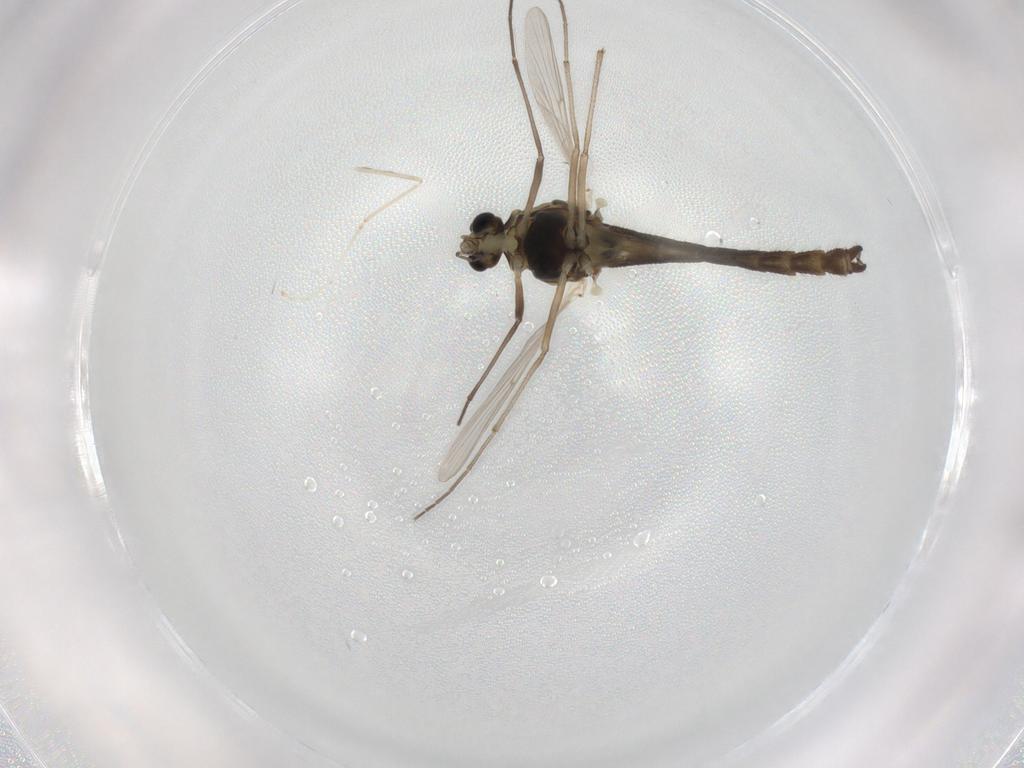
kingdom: Animalia
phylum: Arthropoda
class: Insecta
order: Diptera
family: Chironomidae
